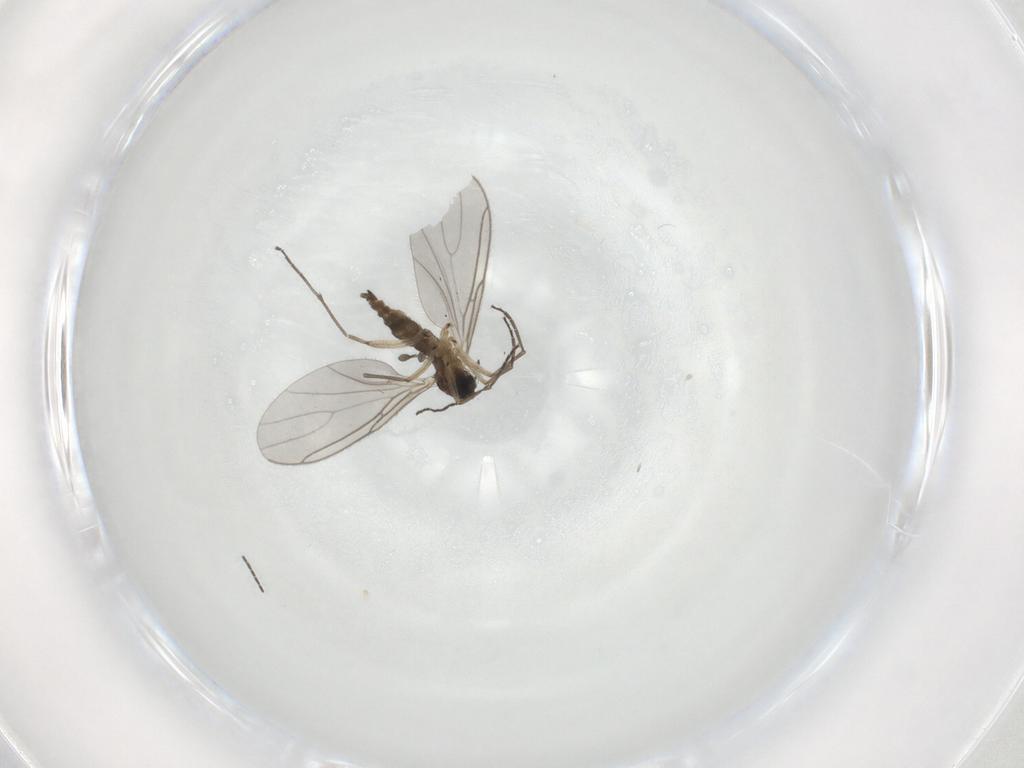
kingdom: Animalia
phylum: Arthropoda
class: Insecta
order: Diptera
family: Sciaridae
